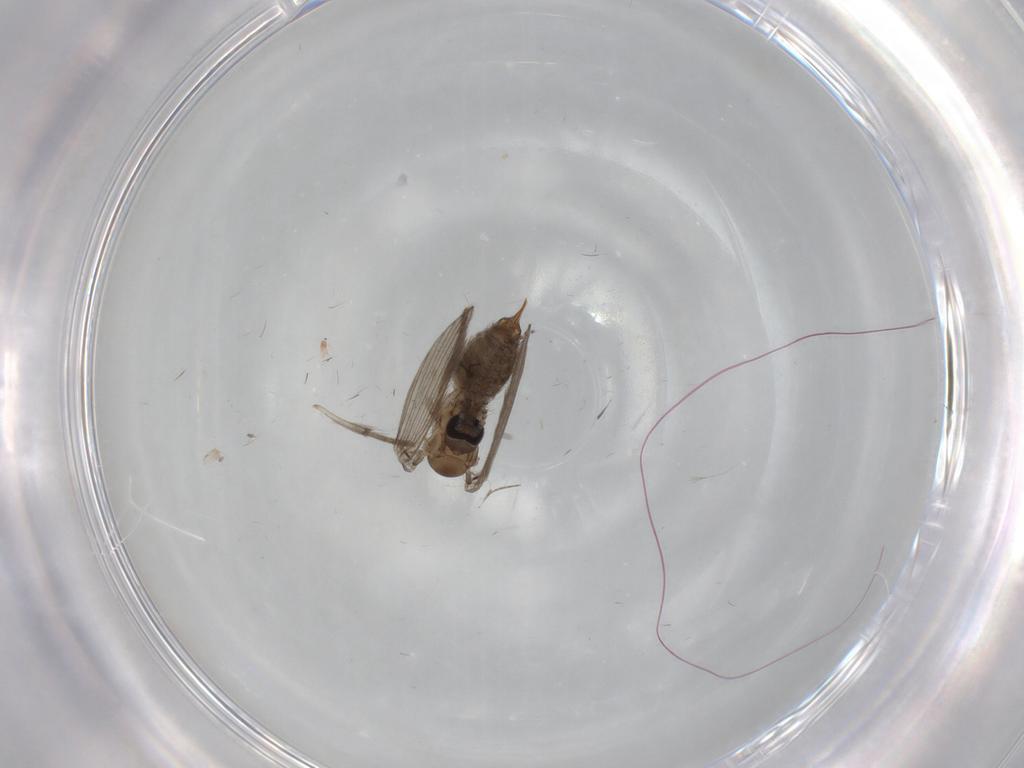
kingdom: Animalia
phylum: Arthropoda
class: Insecta
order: Diptera
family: Psychodidae
